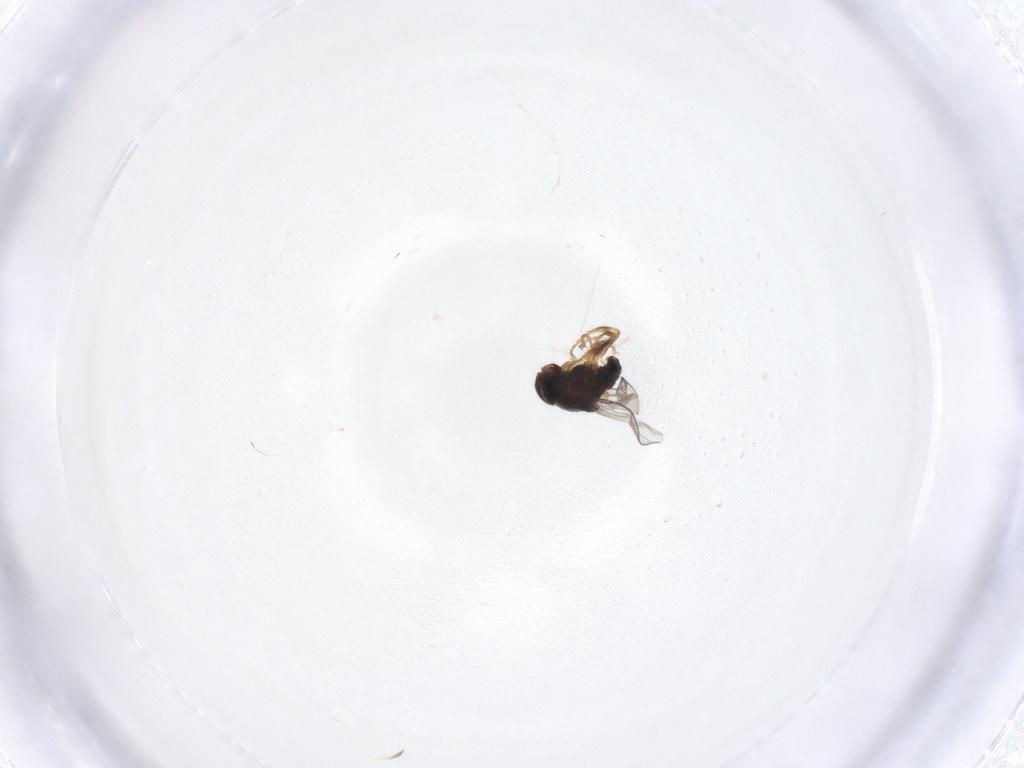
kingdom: Animalia
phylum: Arthropoda
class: Insecta
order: Diptera
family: Chloropidae
